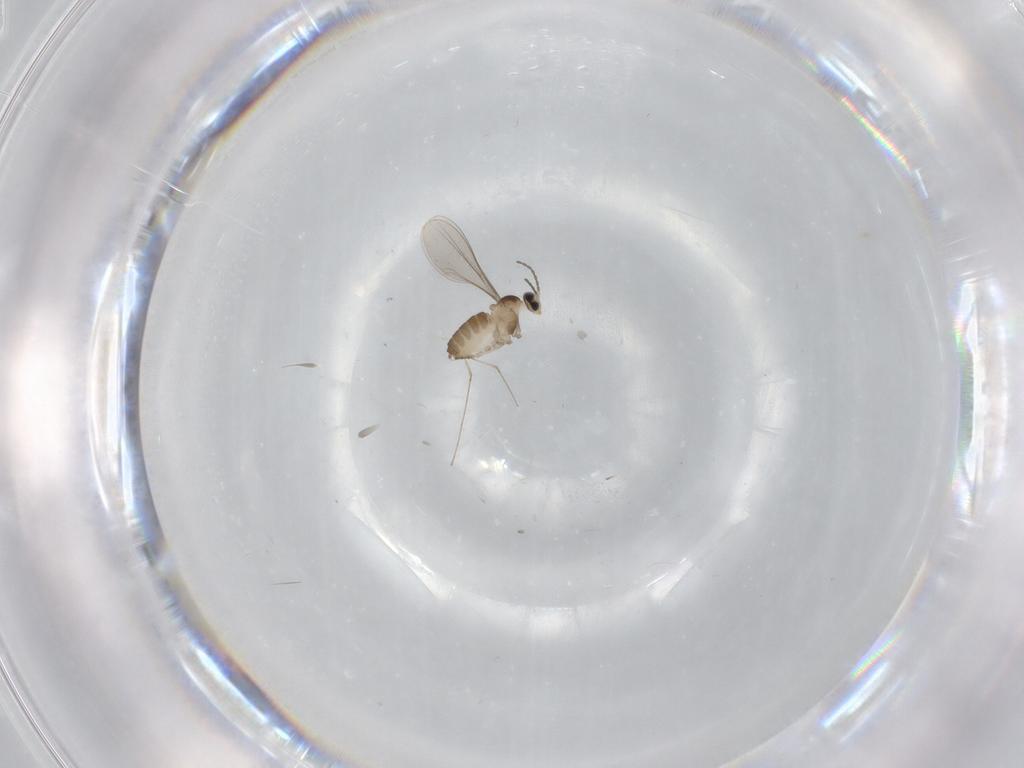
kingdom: Animalia
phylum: Arthropoda
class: Insecta
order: Diptera
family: Ceratopogonidae
